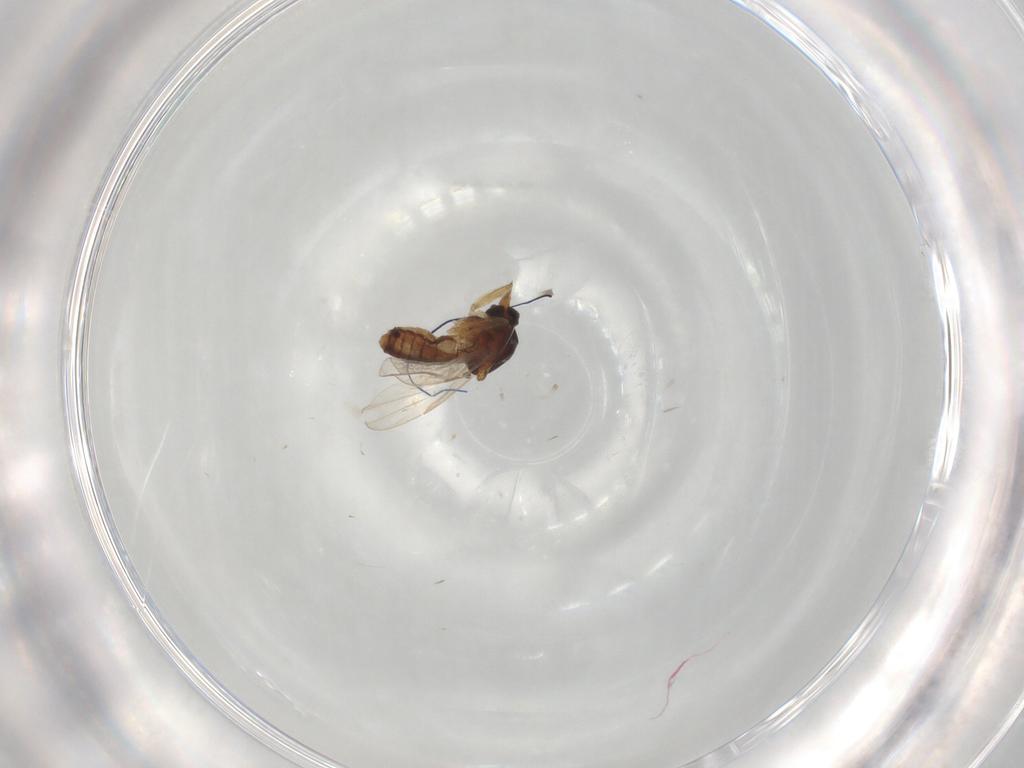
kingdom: Animalia
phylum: Arthropoda
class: Insecta
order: Diptera
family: Ceratopogonidae
